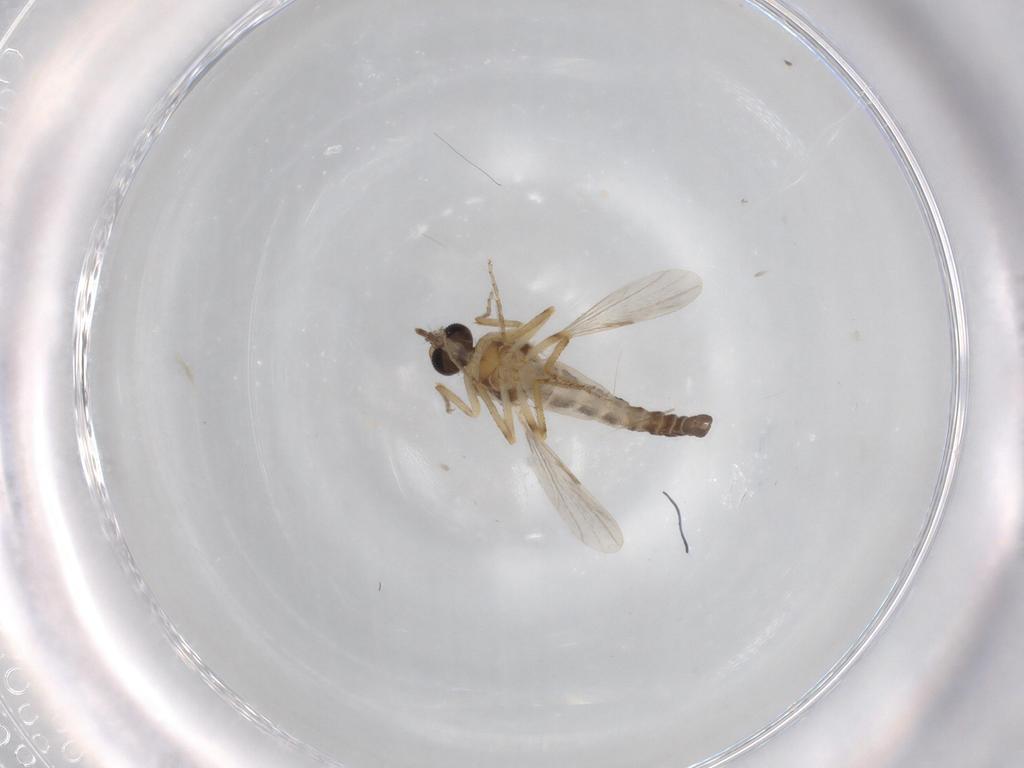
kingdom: Animalia
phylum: Arthropoda
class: Insecta
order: Diptera
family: Ceratopogonidae
